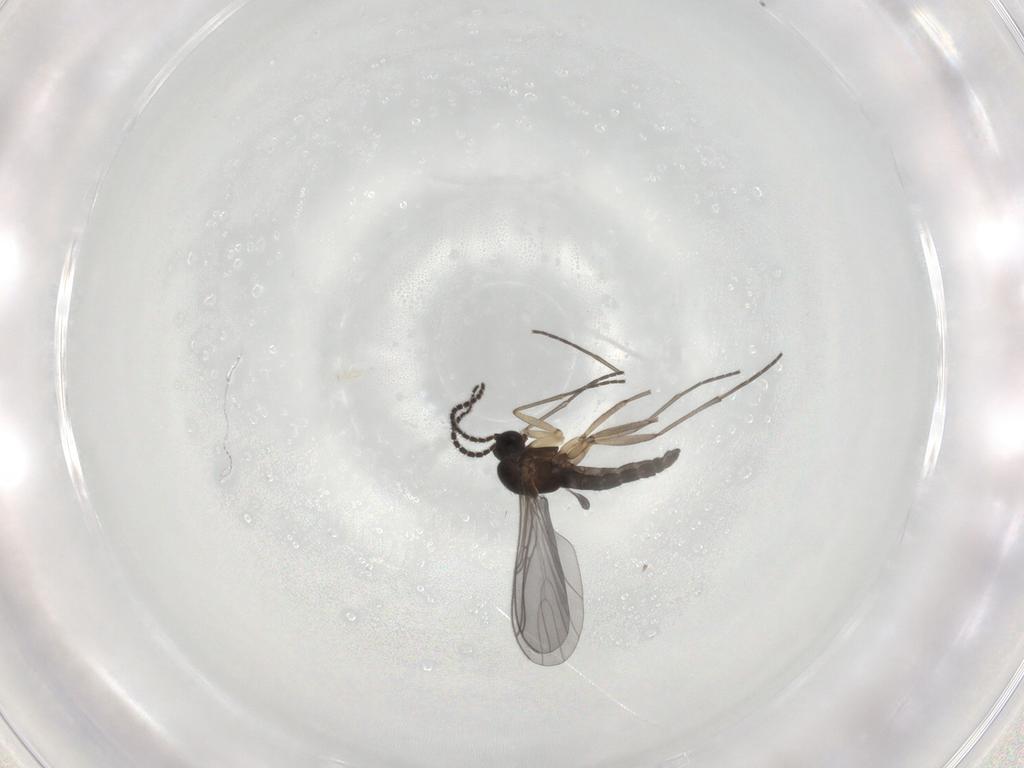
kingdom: Animalia
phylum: Arthropoda
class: Insecta
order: Diptera
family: Sciaridae
